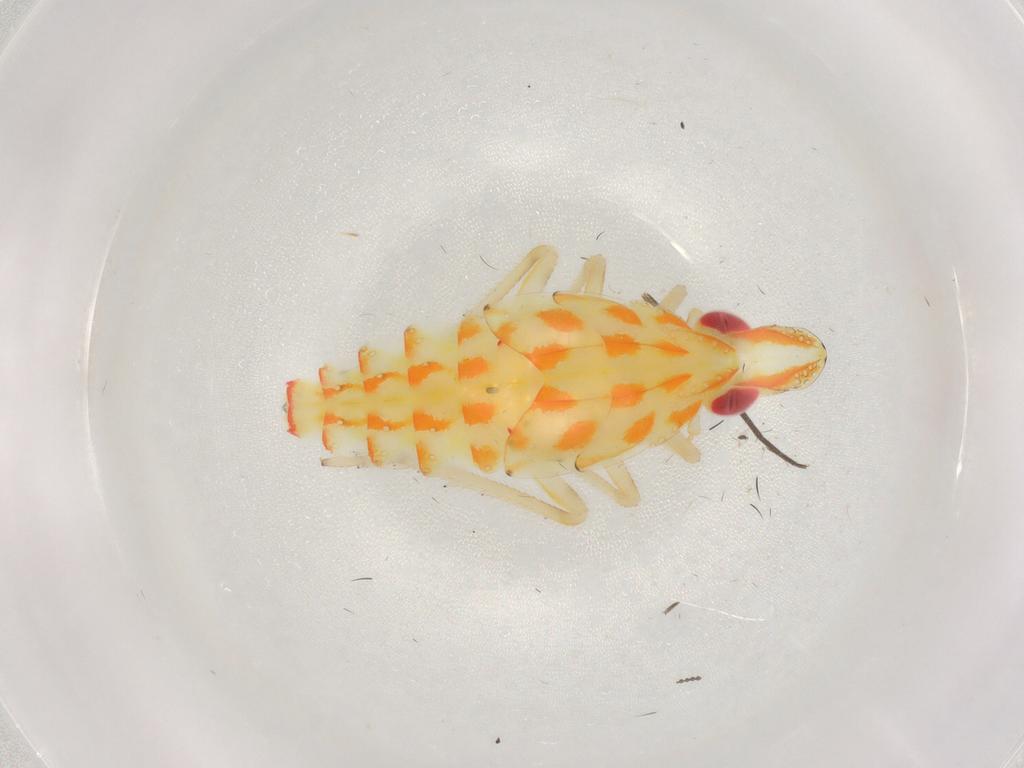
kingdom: Animalia
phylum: Arthropoda
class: Insecta
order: Hemiptera
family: Tropiduchidae
